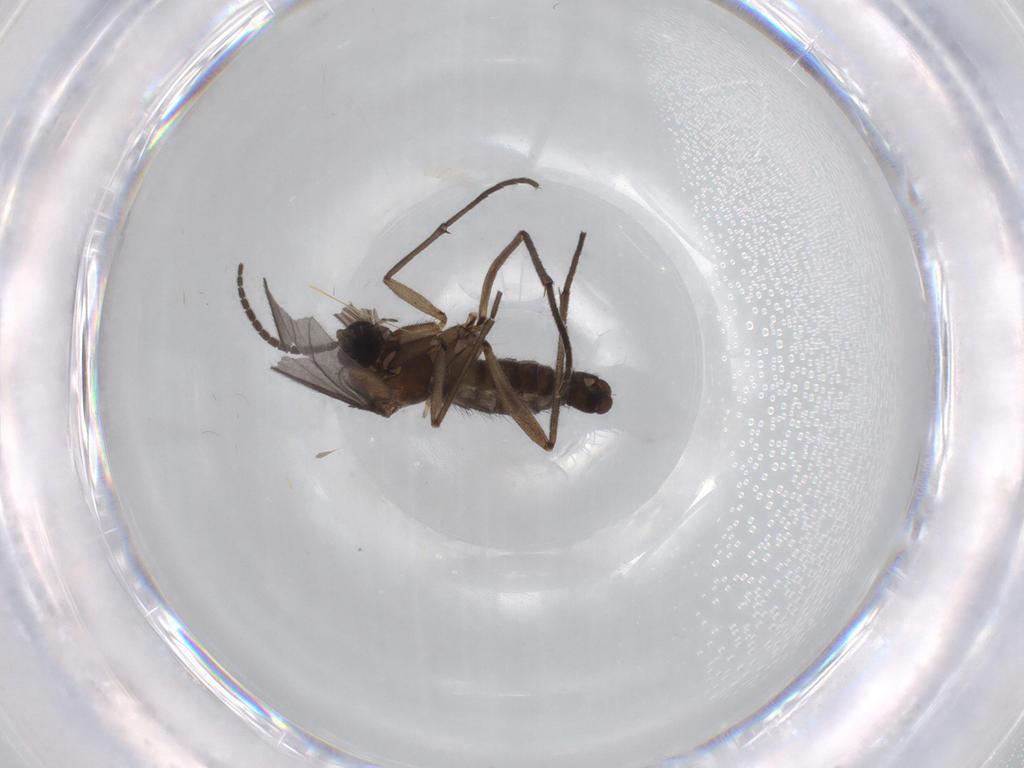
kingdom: Animalia
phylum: Arthropoda
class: Insecta
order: Diptera
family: Sciaridae
